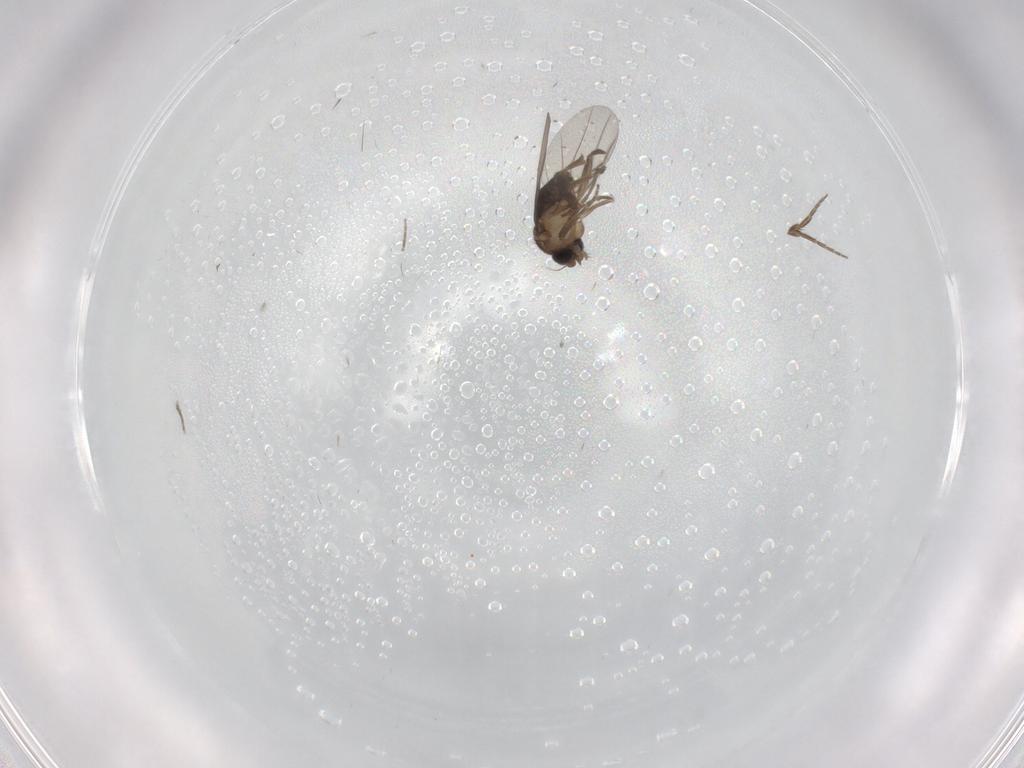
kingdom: Animalia
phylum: Arthropoda
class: Insecta
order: Diptera
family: Phoridae
